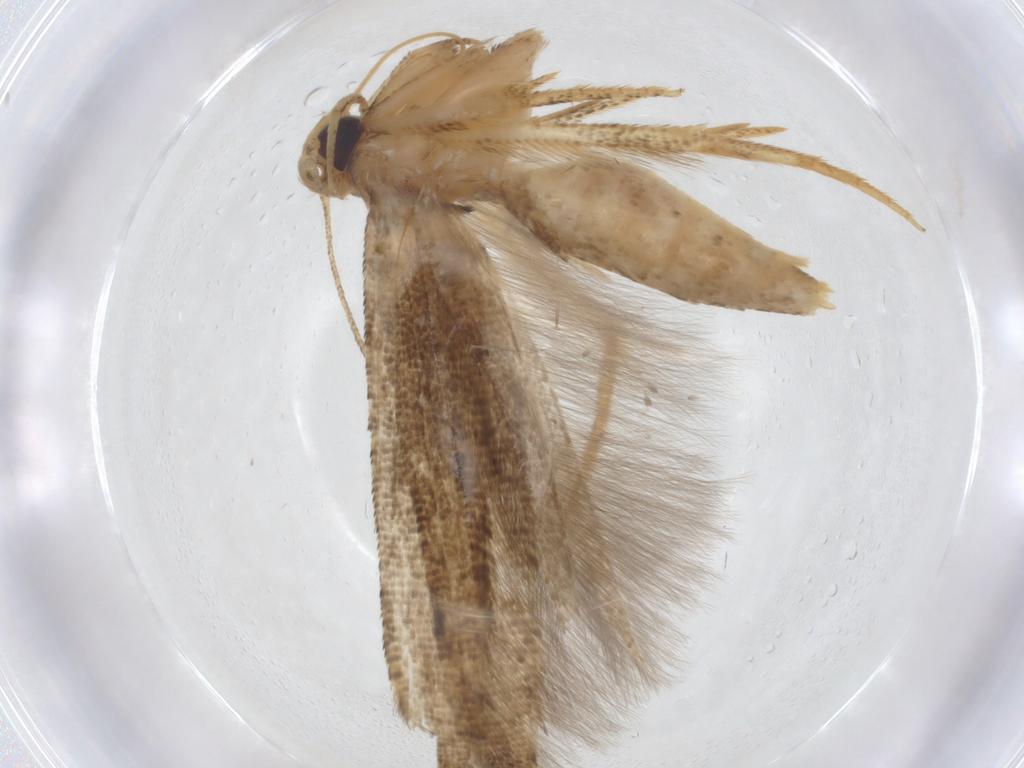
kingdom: Animalia
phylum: Arthropoda
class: Insecta
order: Lepidoptera
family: Cosmopterigidae
